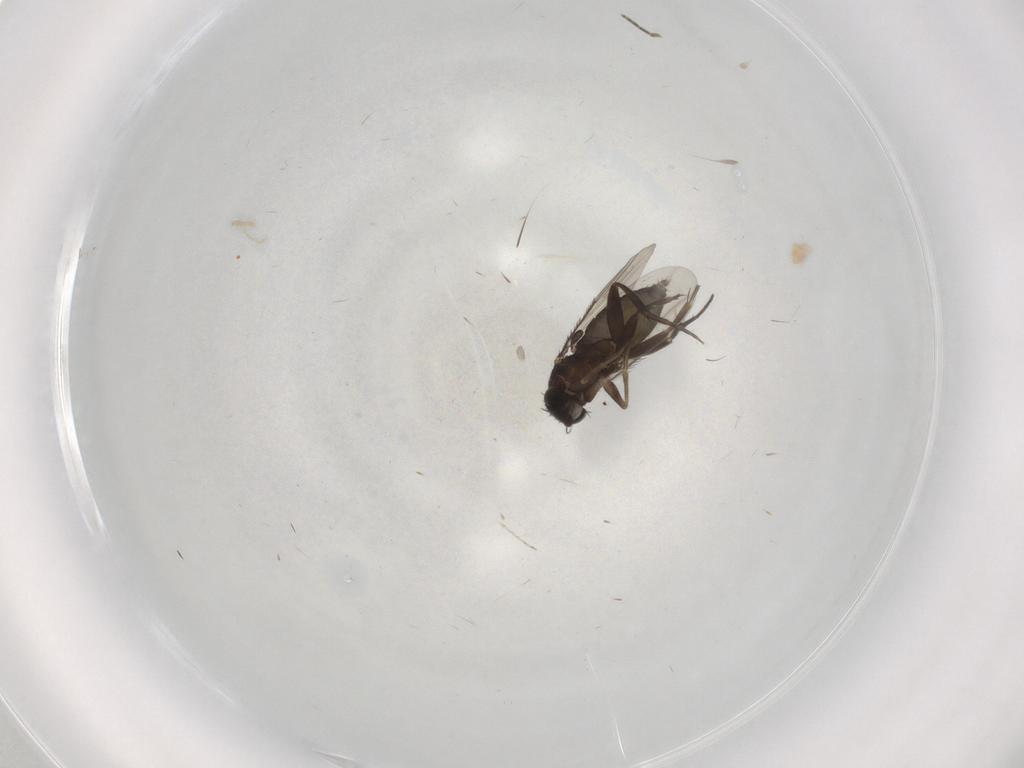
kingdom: Animalia
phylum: Arthropoda
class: Insecta
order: Diptera
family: Phoridae
